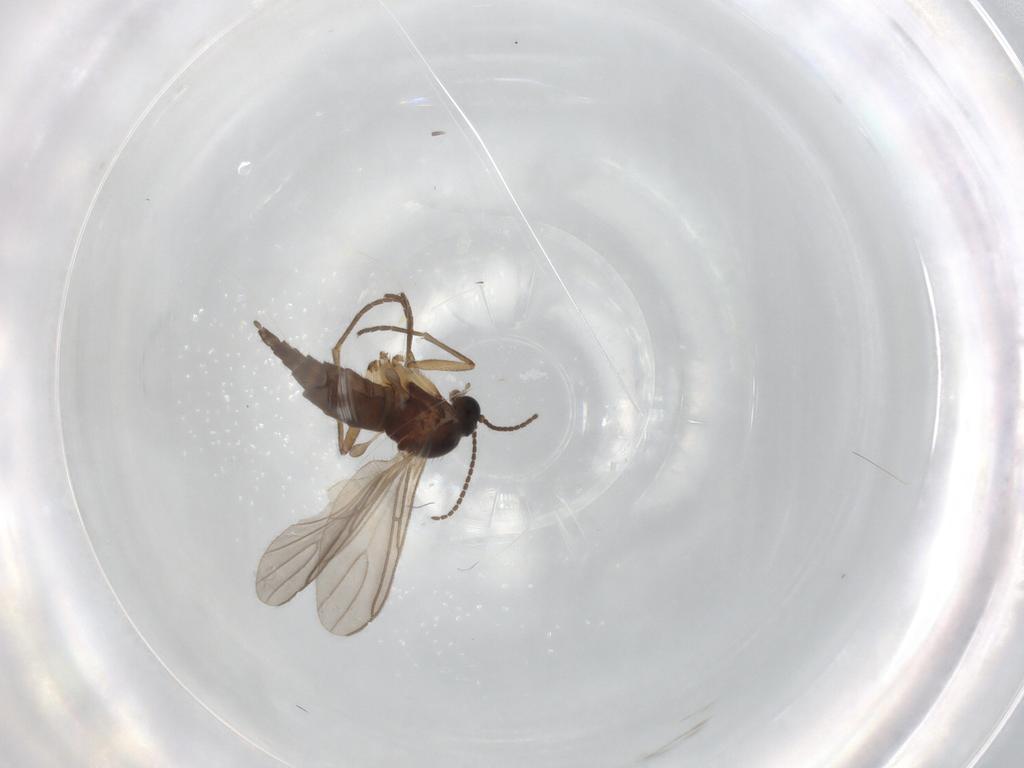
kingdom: Animalia
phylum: Arthropoda
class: Insecta
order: Diptera
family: Sciaridae
